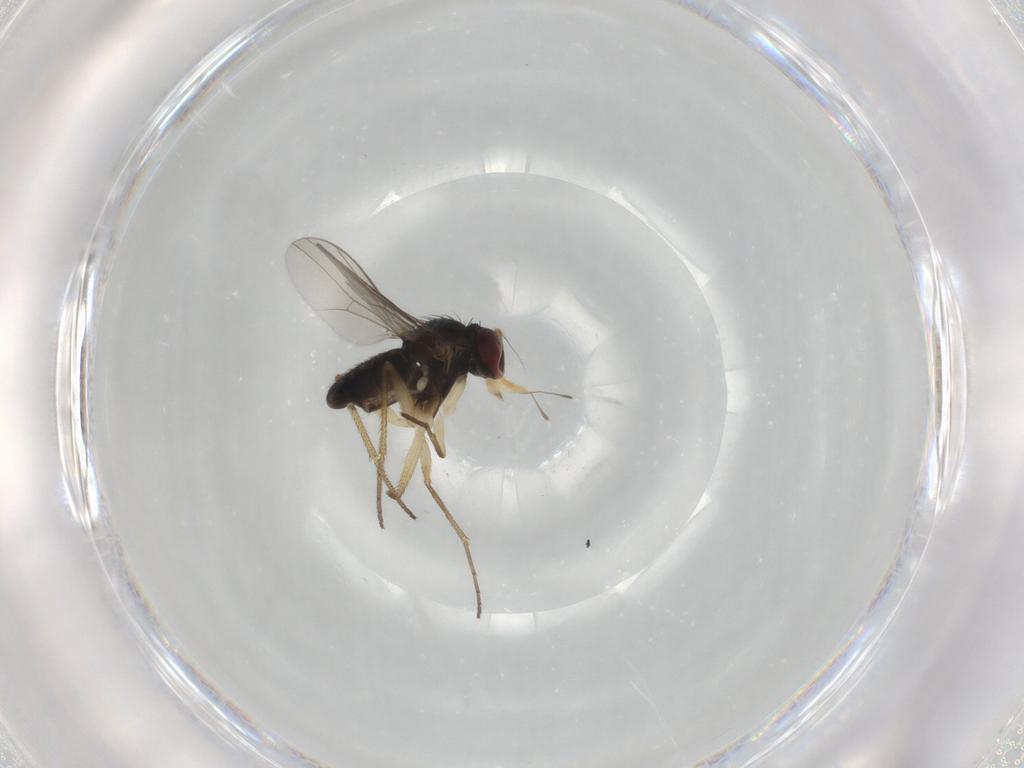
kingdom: Animalia
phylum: Arthropoda
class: Insecta
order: Diptera
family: Dolichopodidae
